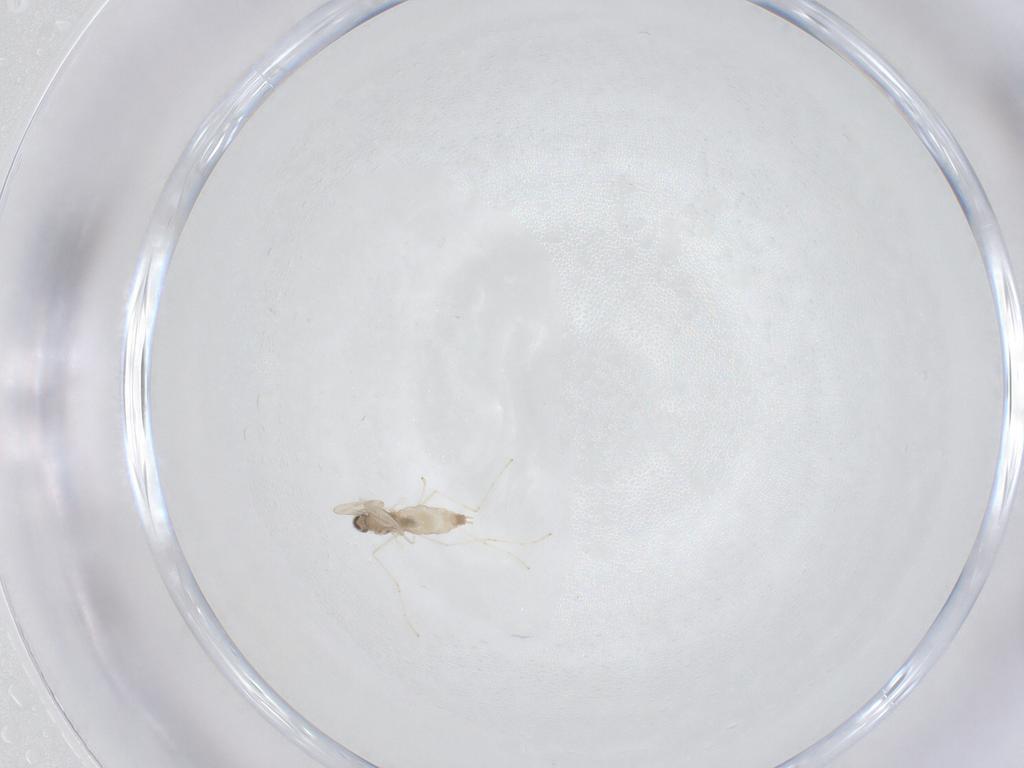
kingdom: Animalia
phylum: Arthropoda
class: Insecta
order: Diptera
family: Cecidomyiidae
